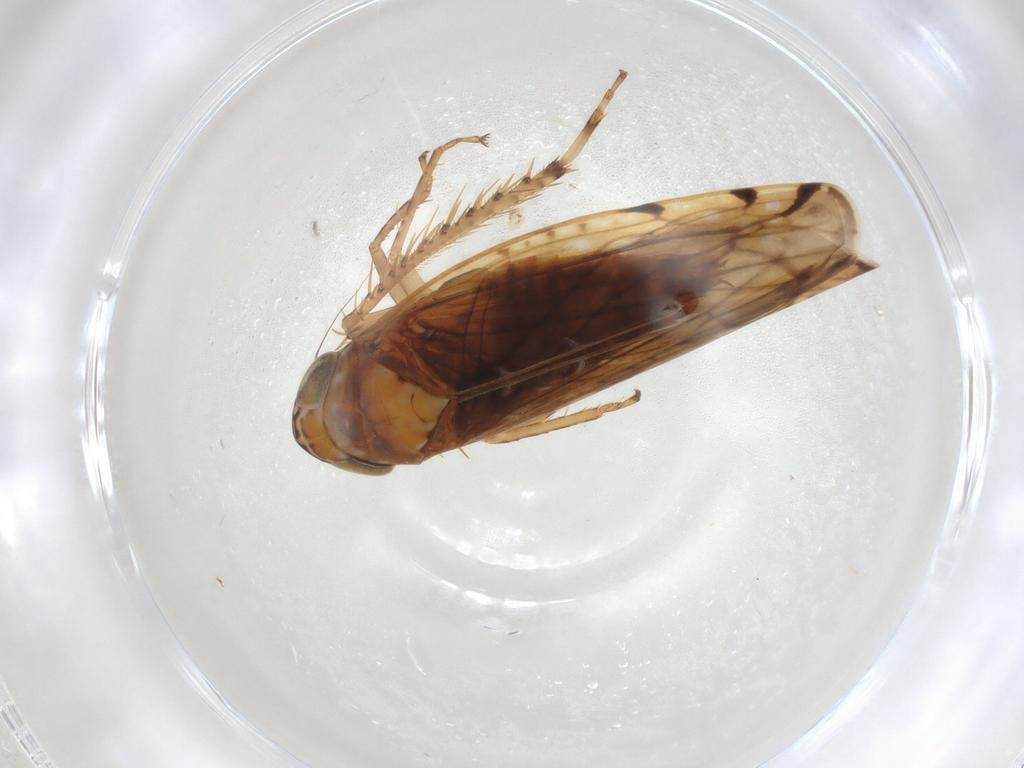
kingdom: Animalia
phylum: Arthropoda
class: Insecta
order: Hemiptera
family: Cicadellidae
